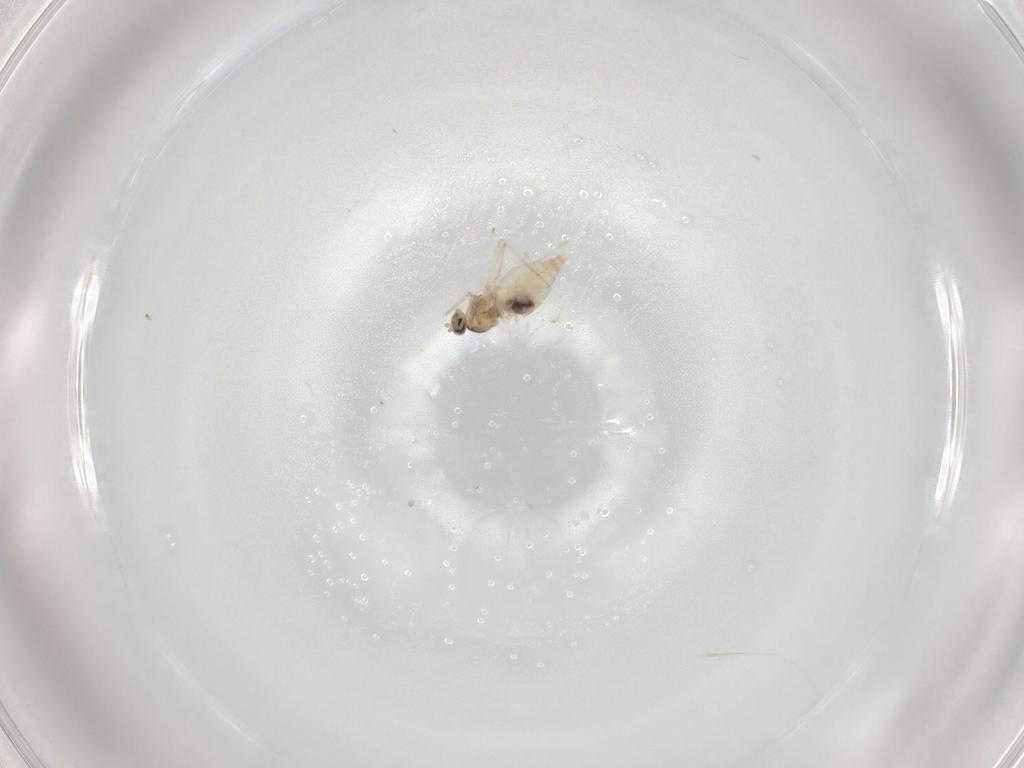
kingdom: Animalia
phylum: Arthropoda
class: Insecta
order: Diptera
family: Cecidomyiidae
